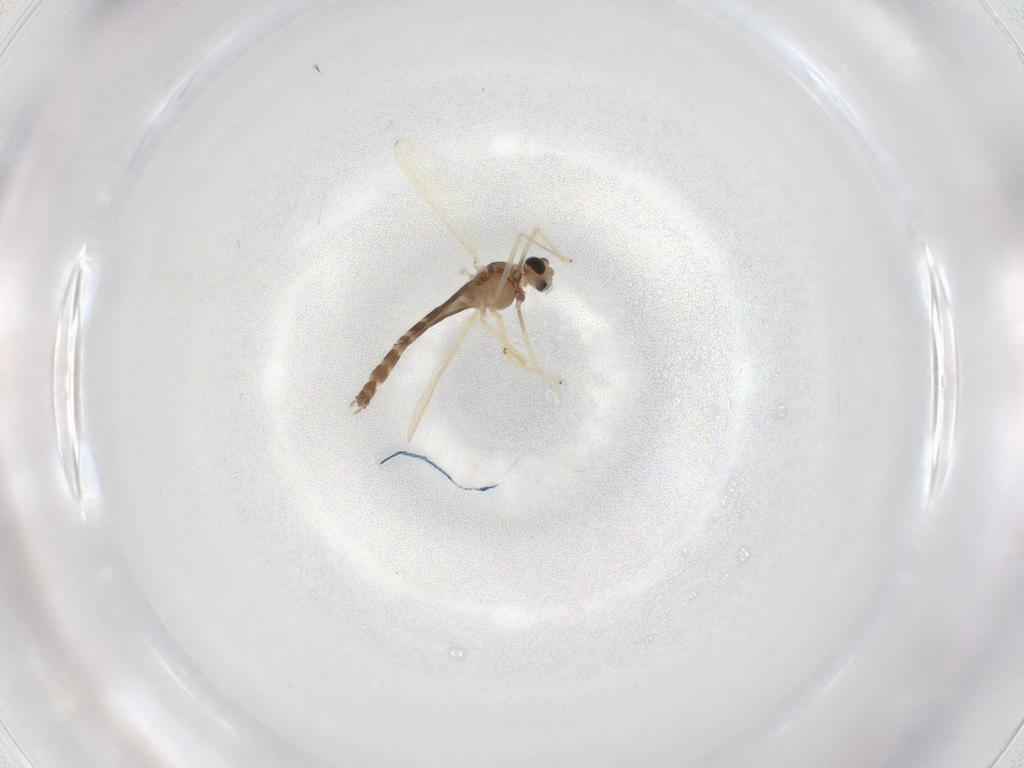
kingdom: Animalia
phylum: Arthropoda
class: Insecta
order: Diptera
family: Chironomidae
